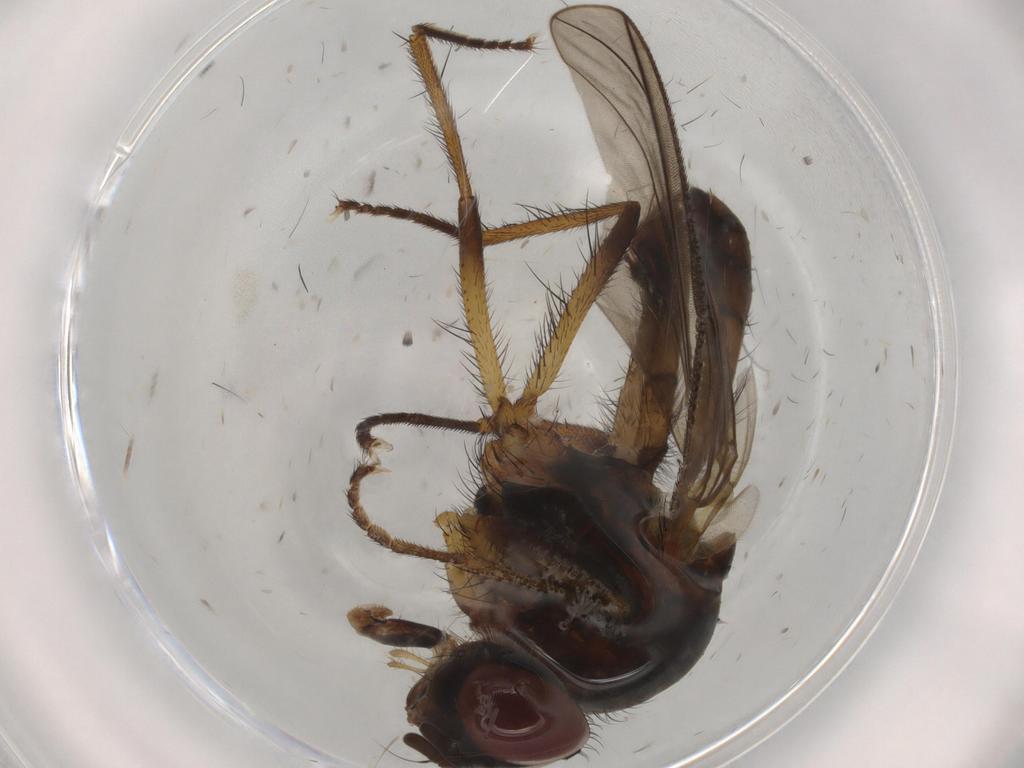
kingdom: Animalia
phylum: Arthropoda
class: Insecta
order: Diptera
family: Anthomyiidae
